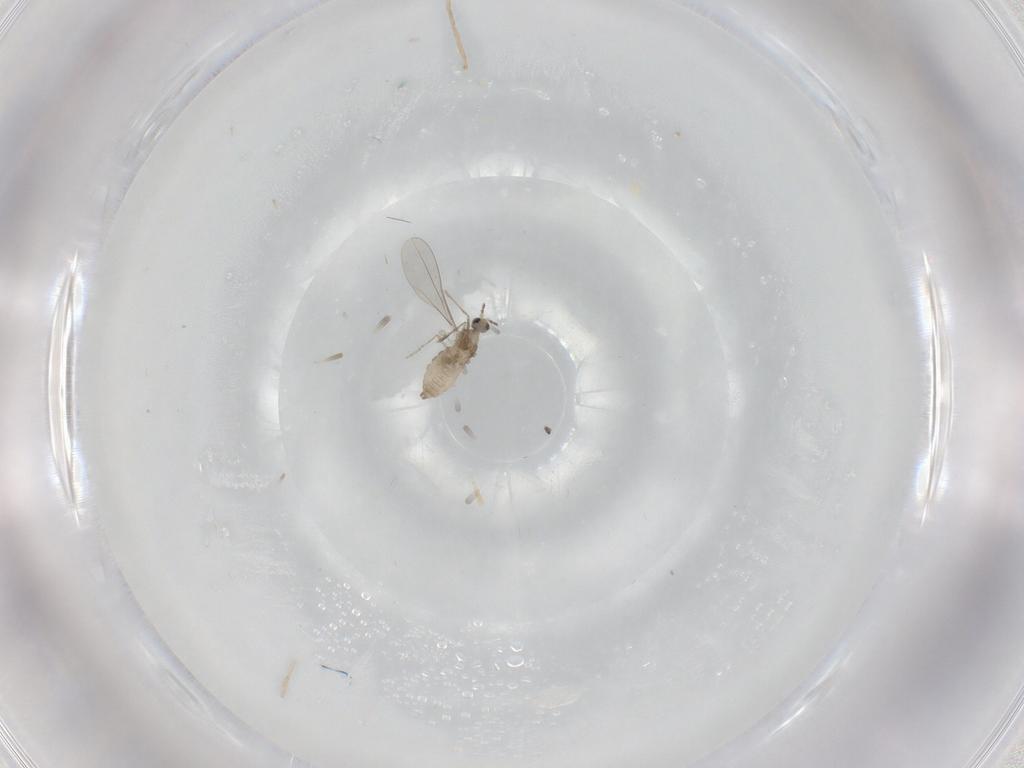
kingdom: Animalia
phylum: Arthropoda
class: Insecta
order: Diptera
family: Cecidomyiidae
